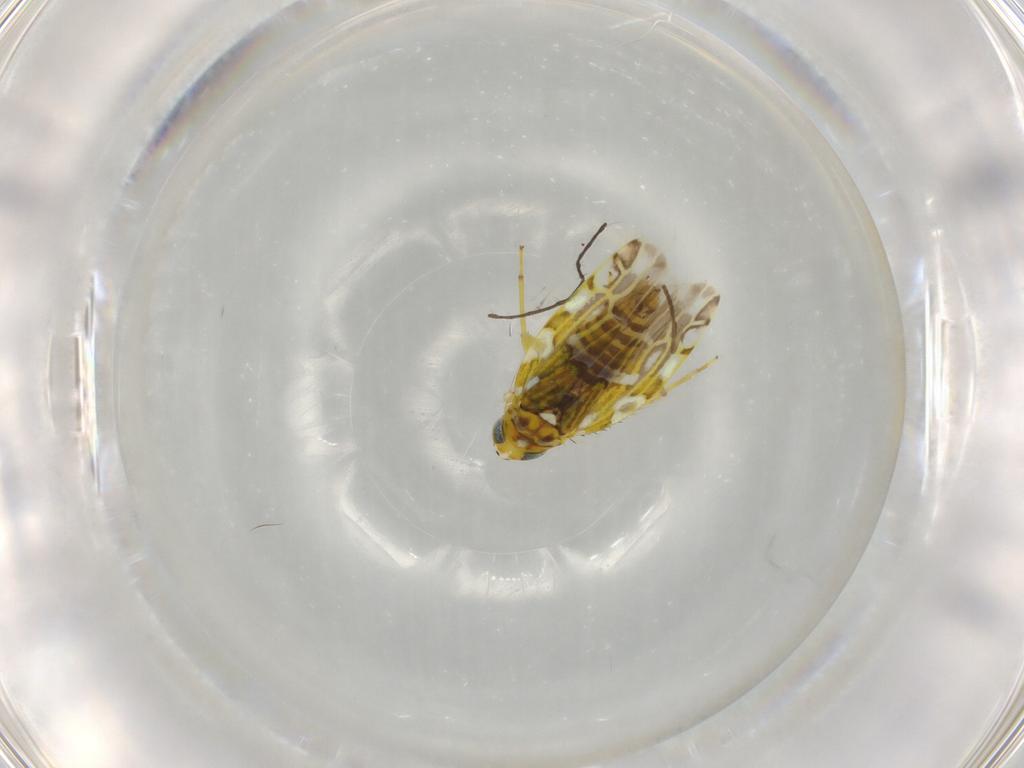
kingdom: Animalia
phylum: Arthropoda
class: Insecta
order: Hemiptera
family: Cicadellidae
